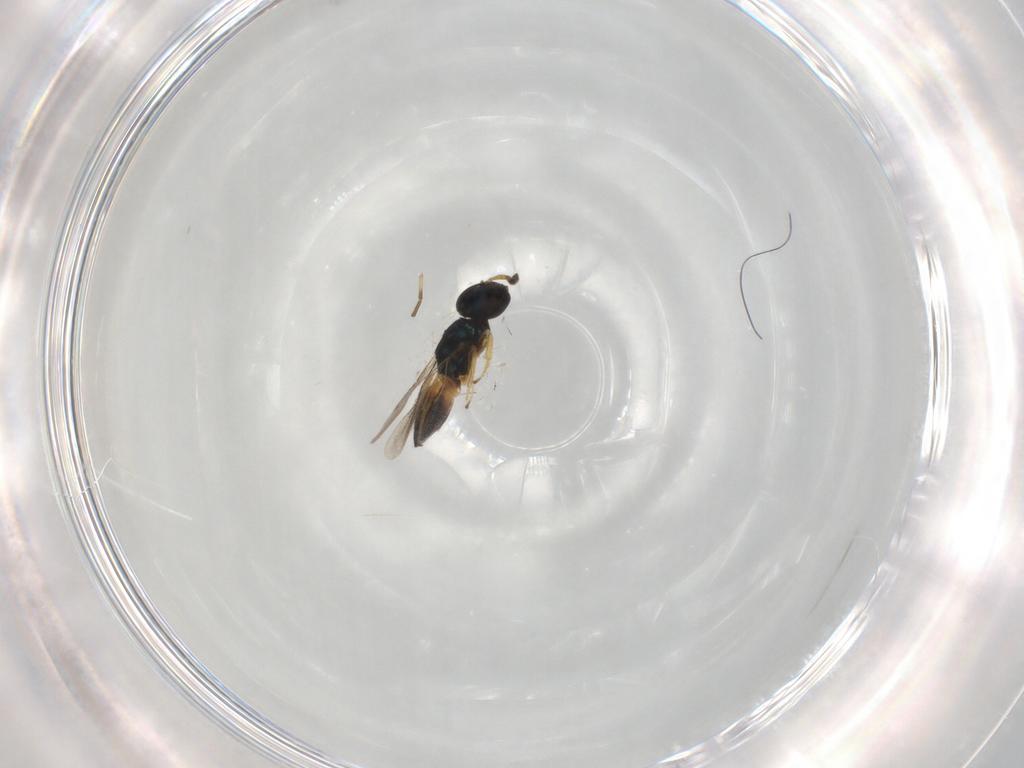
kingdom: Animalia
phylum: Arthropoda
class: Insecta
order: Hymenoptera
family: Pteromalidae
